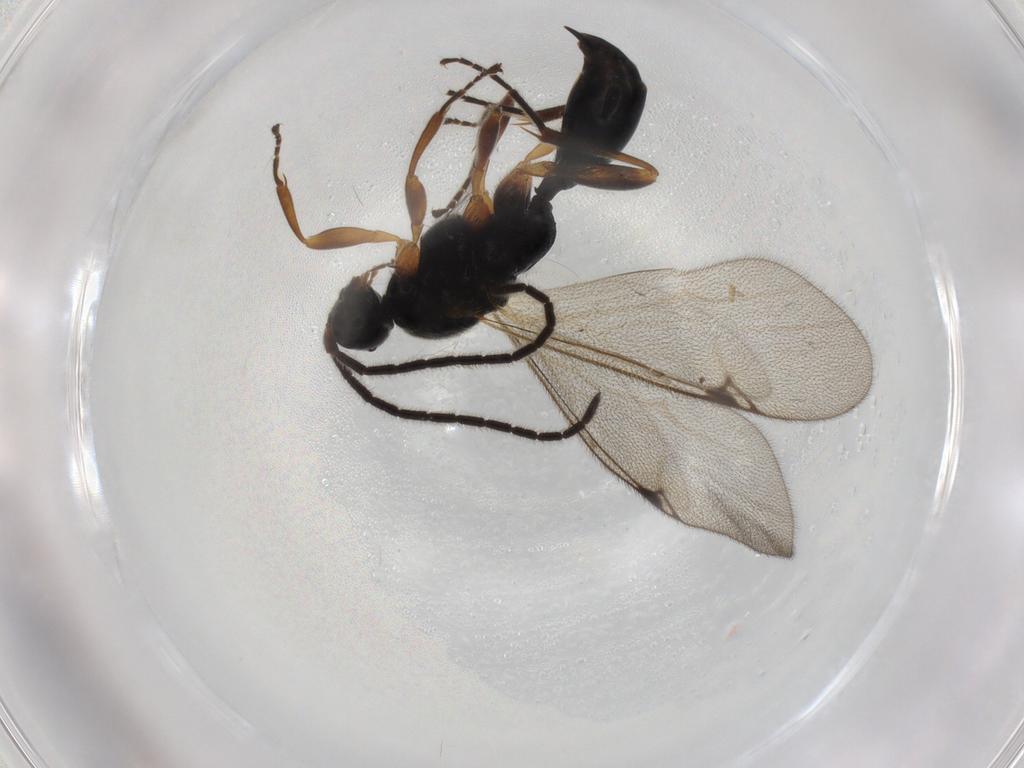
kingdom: Animalia
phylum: Arthropoda
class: Insecta
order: Hymenoptera
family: Proctotrupidae
